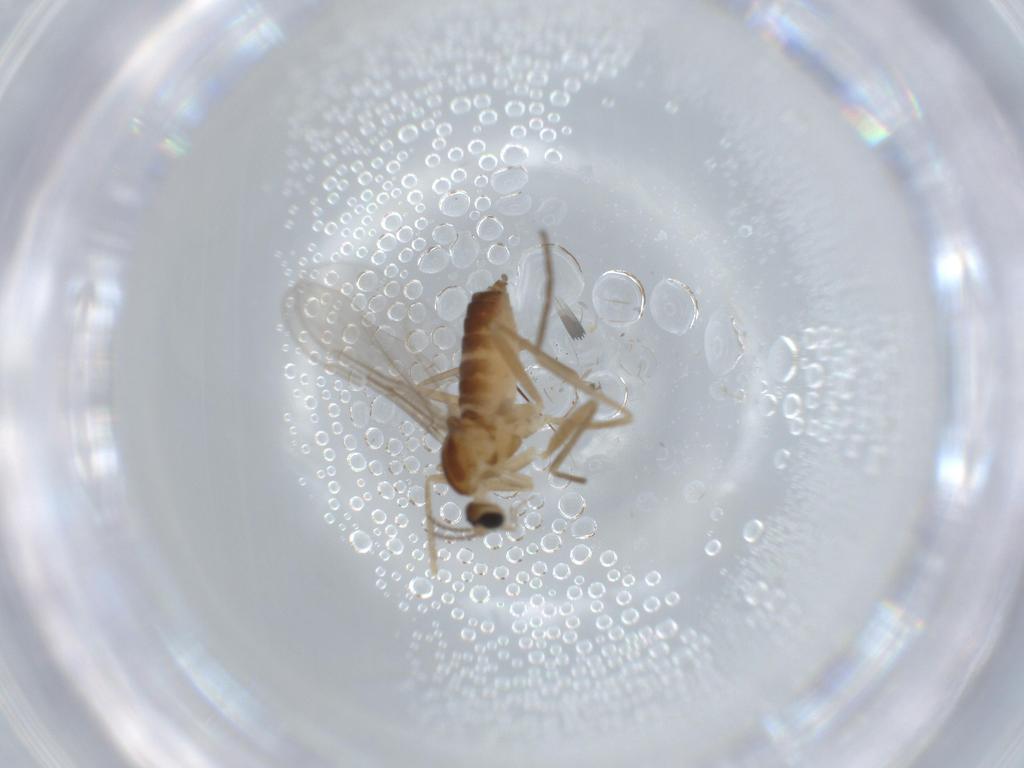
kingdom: Animalia
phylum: Arthropoda
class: Insecta
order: Diptera
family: Cecidomyiidae
